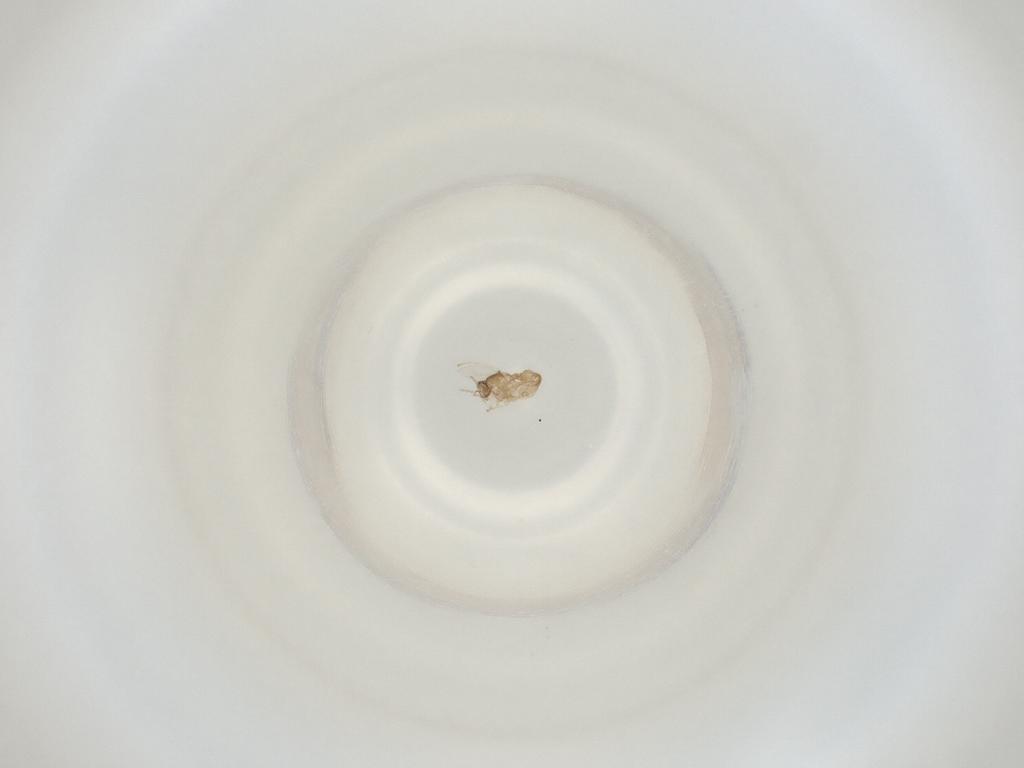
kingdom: Animalia
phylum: Arthropoda
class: Insecta
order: Diptera
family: Cecidomyiidae
